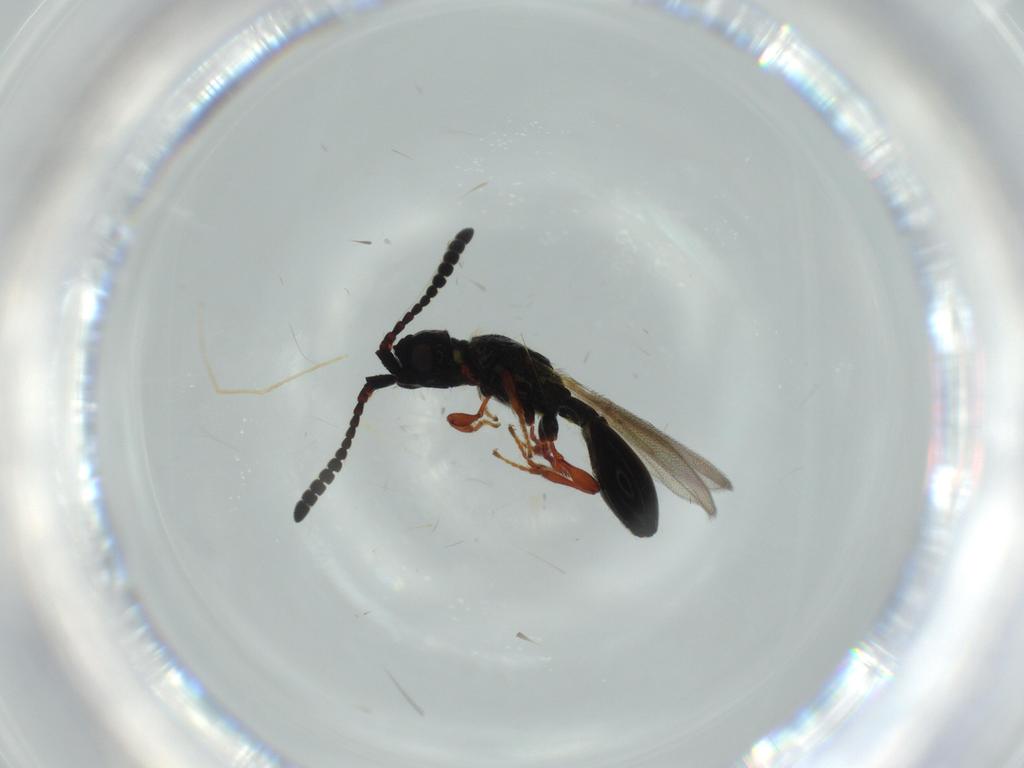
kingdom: Animalia
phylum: Arthropoda
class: Insecta
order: Hymenoptera
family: Diapriidae
